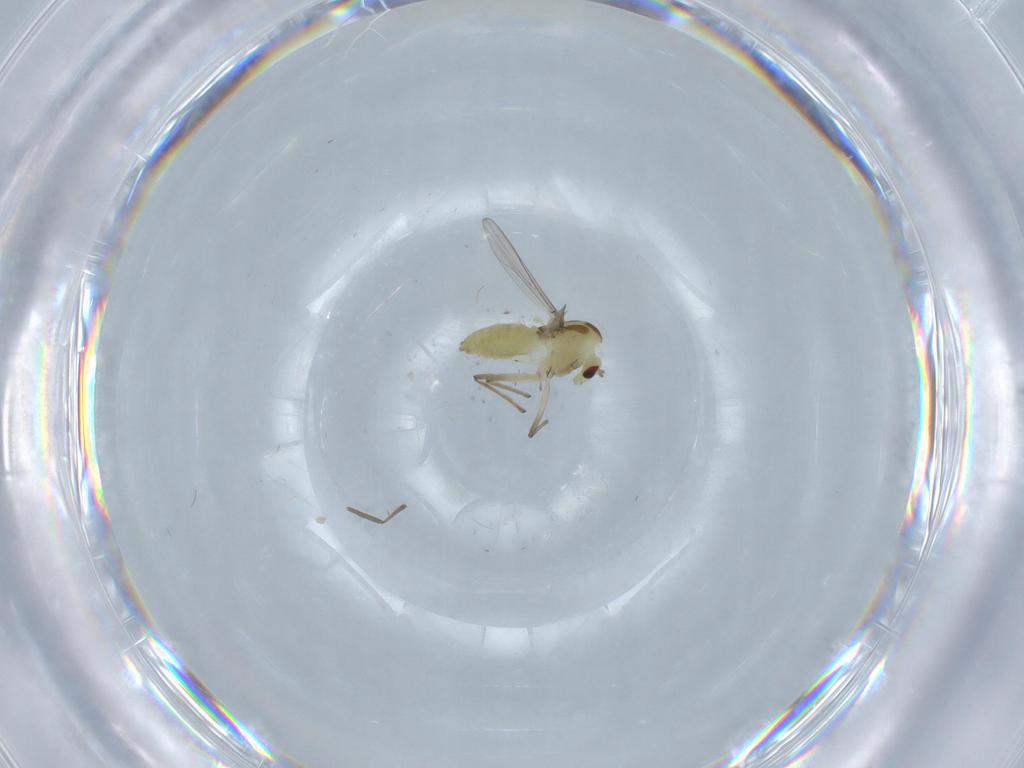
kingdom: Animalia
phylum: Arthropoda
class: Insecta
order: Diptera
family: Chironomidae
